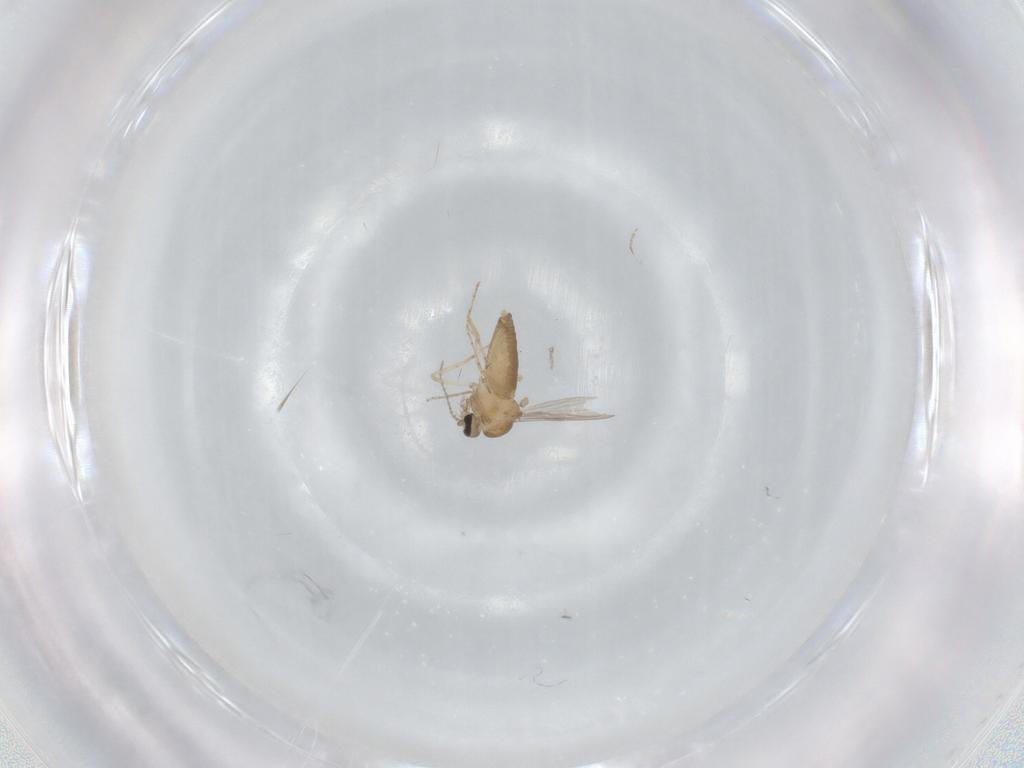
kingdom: Animalia
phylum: Arthropoda
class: Insecta
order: Diptera
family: Ceratopogonidae
